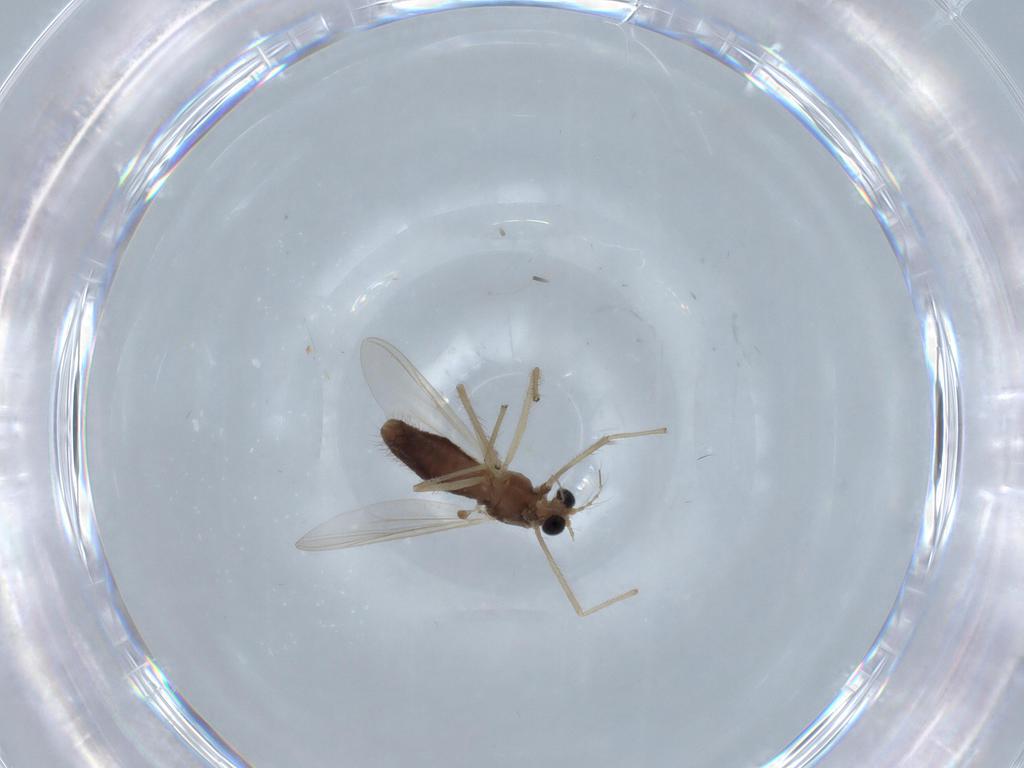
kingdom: Animalia
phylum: Arthropoda
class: Insecta
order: Diptera
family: Chironomidae
